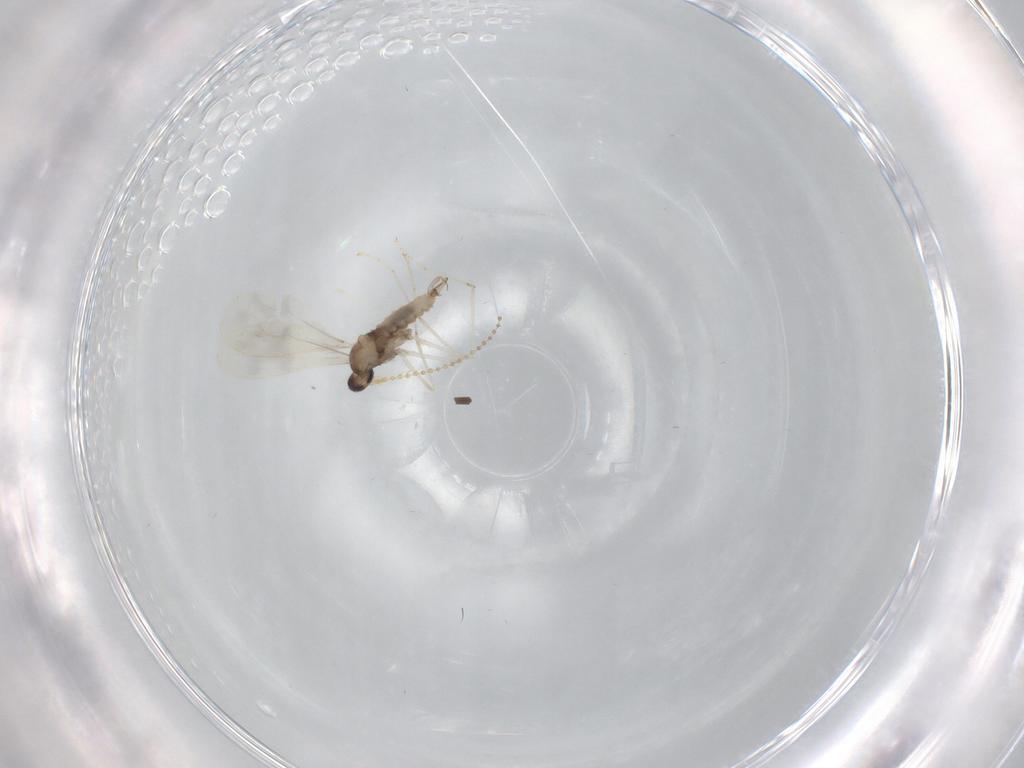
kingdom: Animalia
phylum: Arthropoda
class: Insecta
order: Diptera
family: Cecidomyiidae
